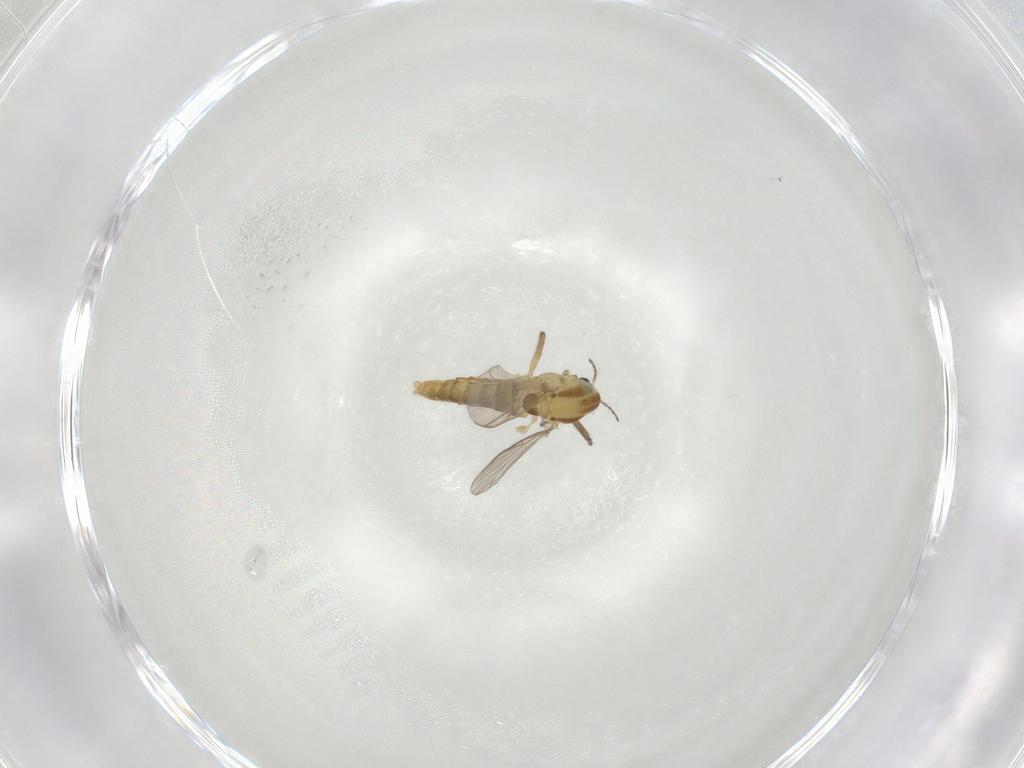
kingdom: Animalia
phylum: Arthropoda
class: Insecta
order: Diptera
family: Chironomidae
